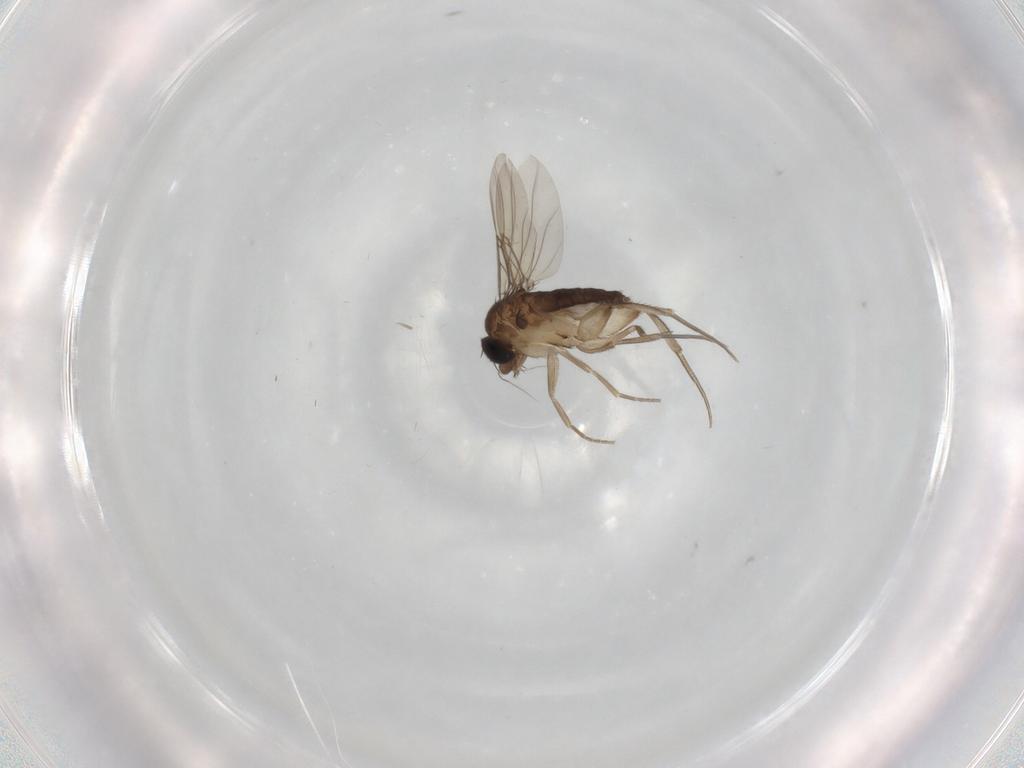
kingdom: Animalia
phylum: Arthropoda
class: Insecta
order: Diptera
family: Phoridae
